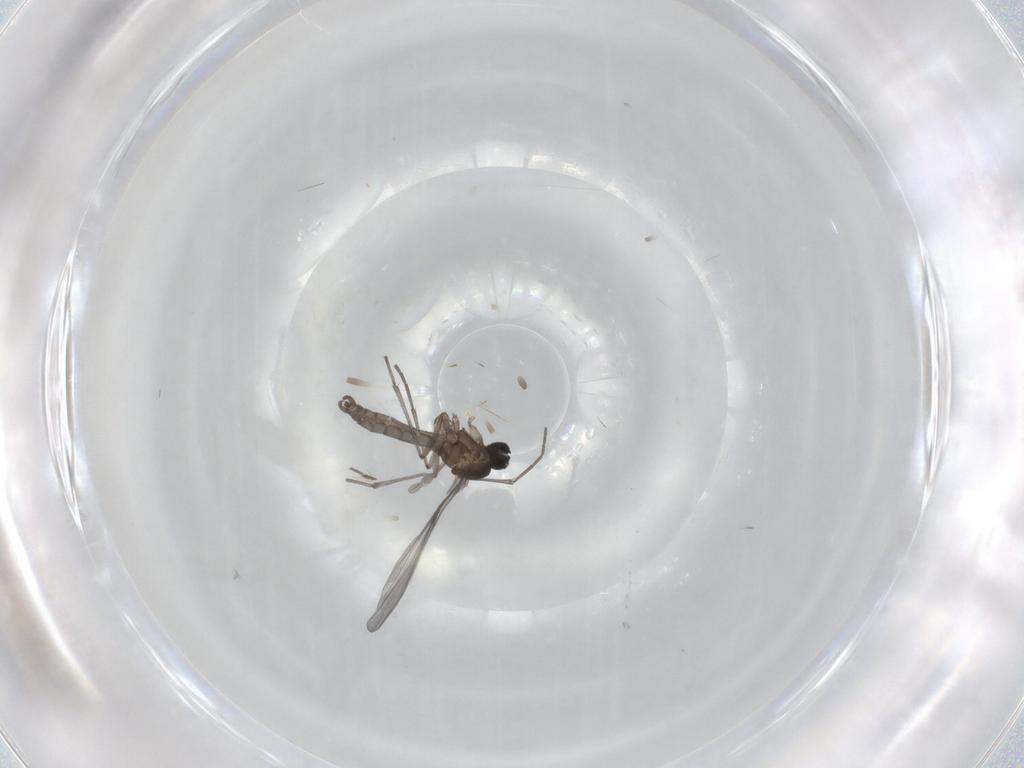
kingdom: Animalia
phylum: Arthropoda
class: Insecta
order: Diptera
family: Sciaridae
